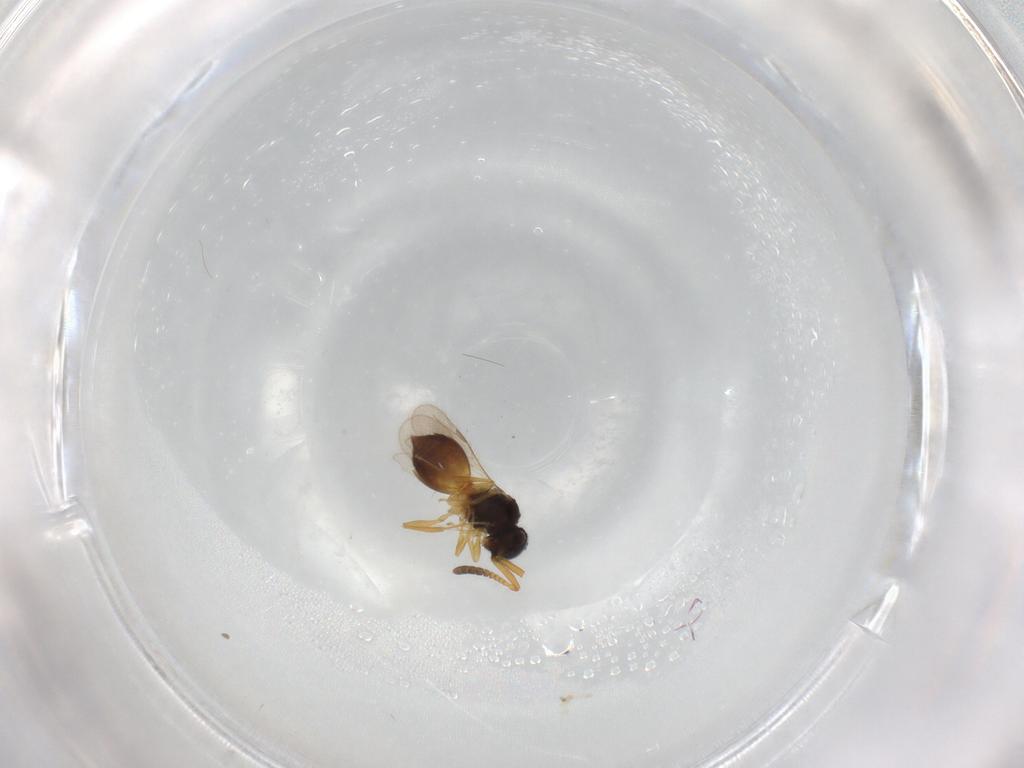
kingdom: Animalia
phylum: Arthropoda
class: Insecta
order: Hymenoptera
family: Megaspilidae
